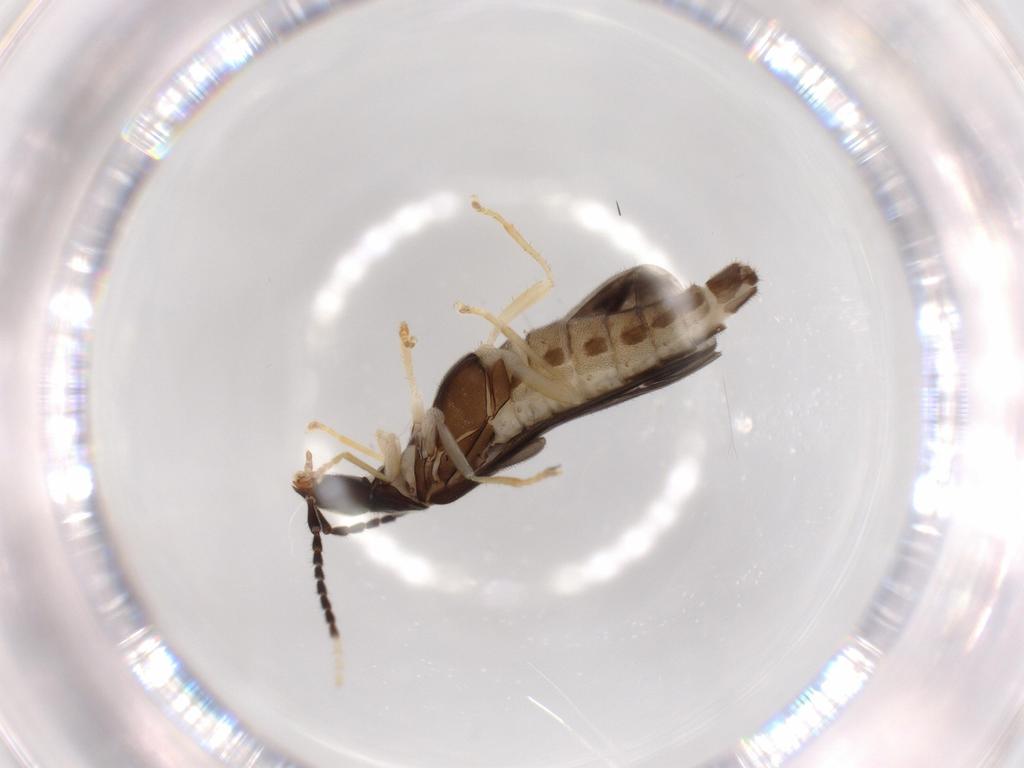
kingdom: Animalia
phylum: Arthropoda
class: Insecta
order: Coleoptera
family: Cantharidae
